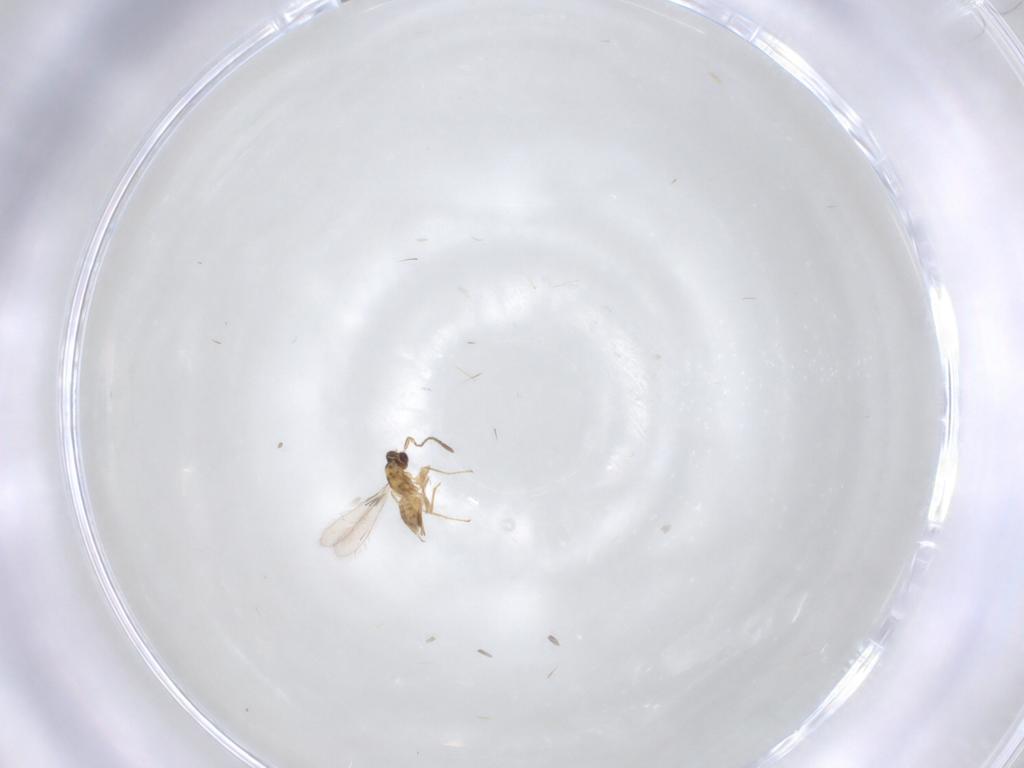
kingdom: Animalia
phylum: Arthropoda
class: Insecta
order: Hymenoptera
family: Mymaridae
